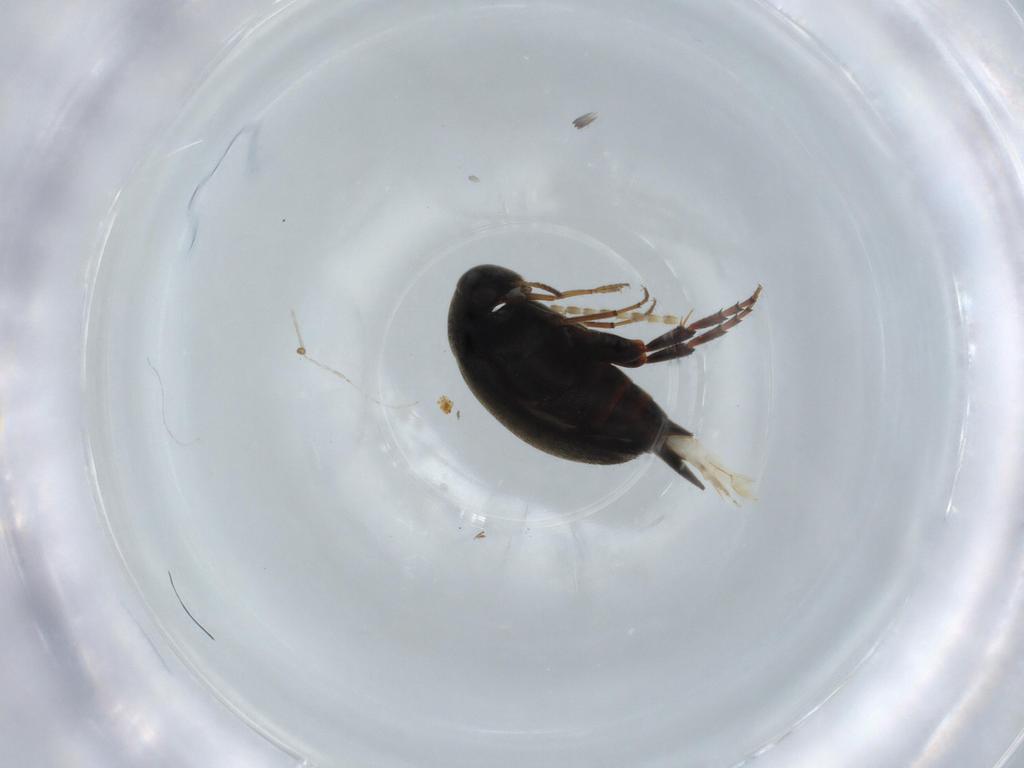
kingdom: Animalia
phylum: Arthropoda
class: Insecta
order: Coleoptera
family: Mordellidae
